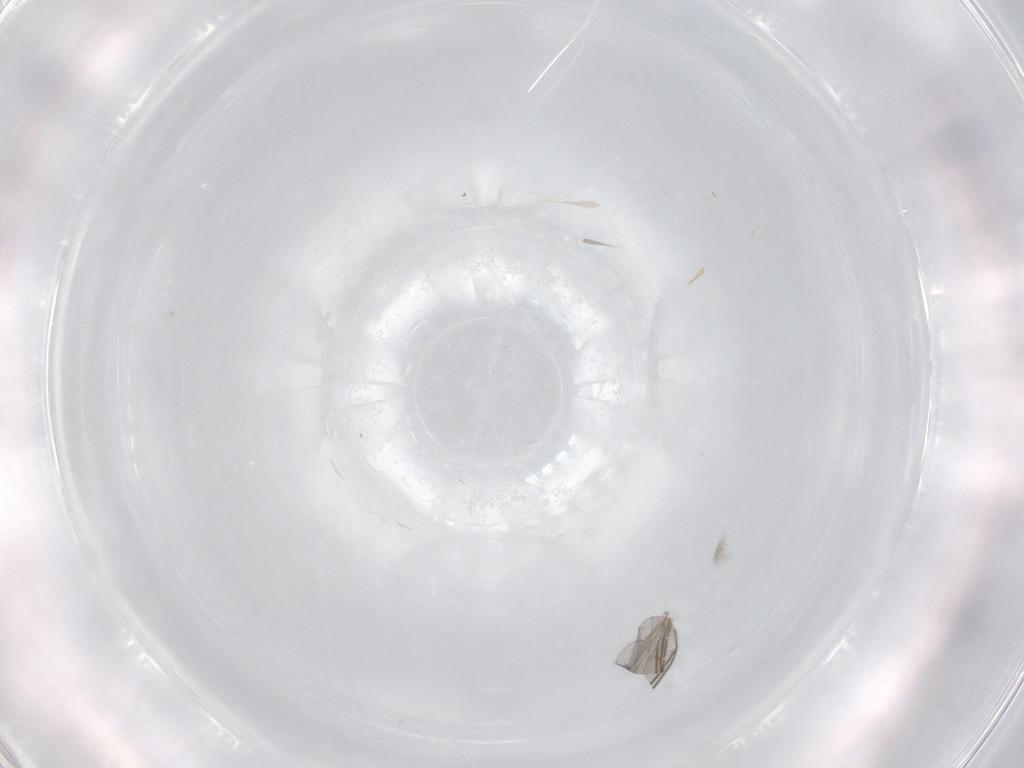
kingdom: Animalia
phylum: Arthropoda
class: Insecta
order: Diptera
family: Sciaridae
